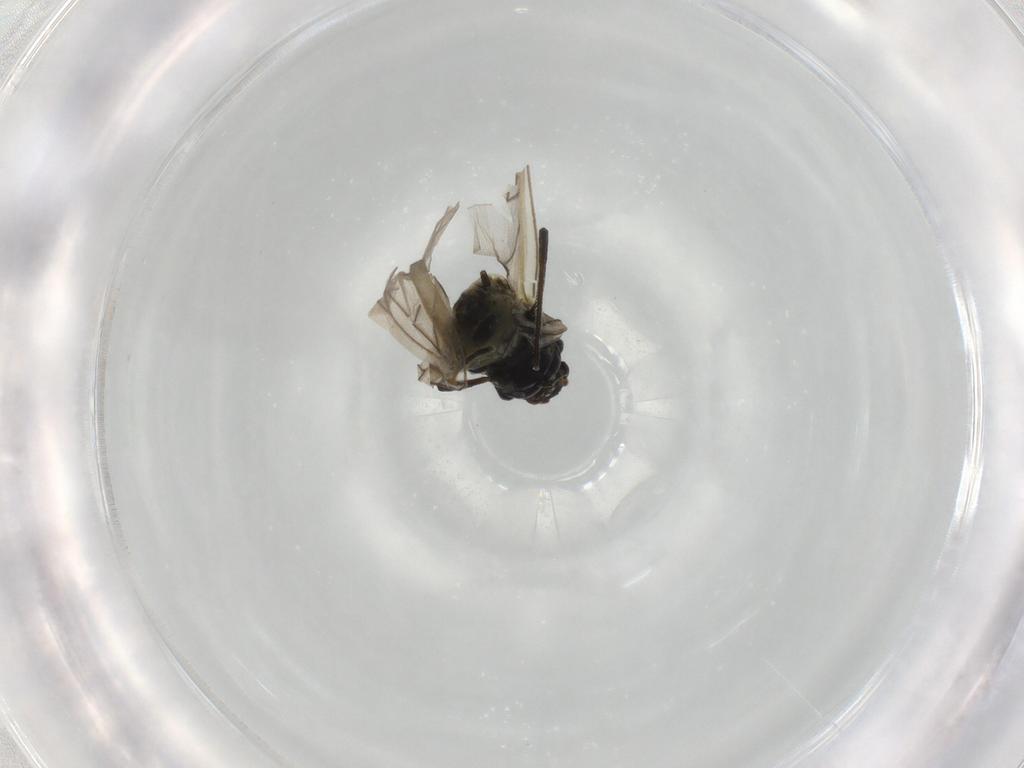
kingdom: Animalia
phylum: Arthropoda
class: Insecta
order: Hemiptera
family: Aphididae
